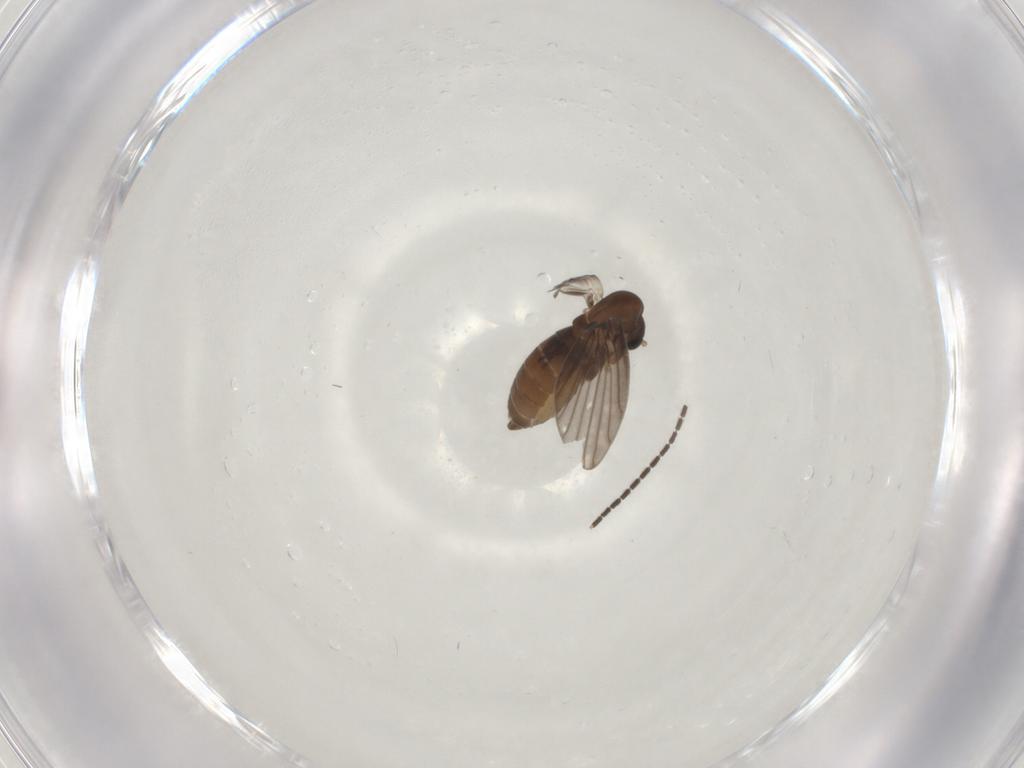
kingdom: Animalia
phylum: Arthropoda
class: Insecta
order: Diptera
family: Psychodidae
